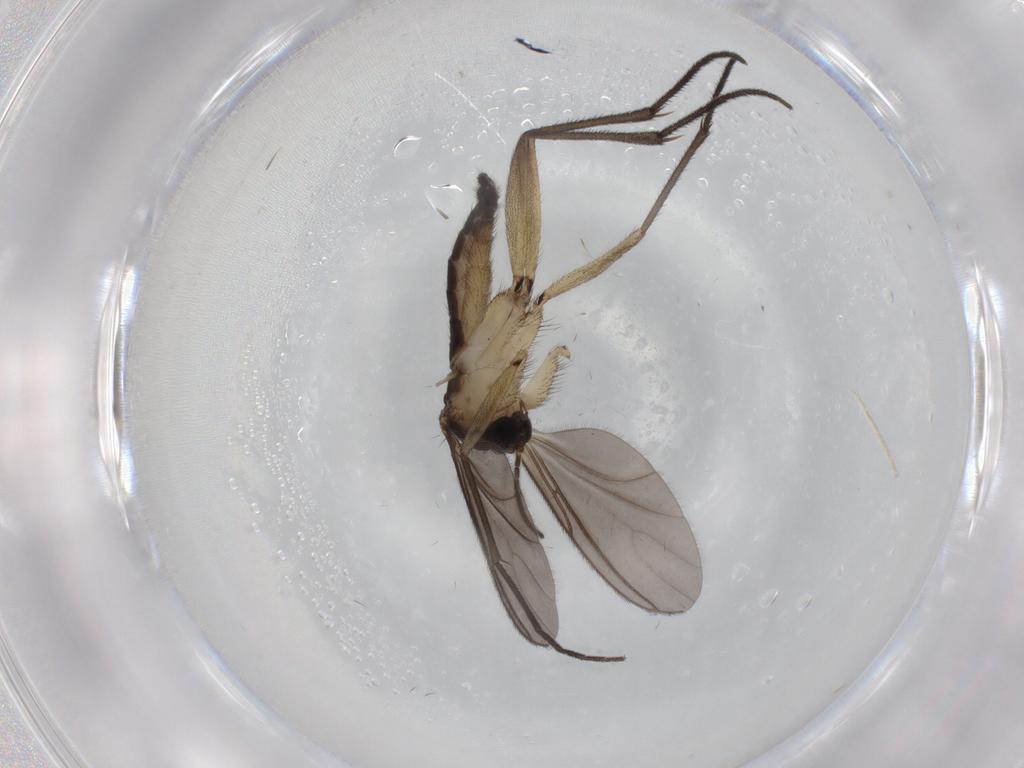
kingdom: Animalia
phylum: Arthropoda
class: Insecta
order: Diptera
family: Sciaridae
